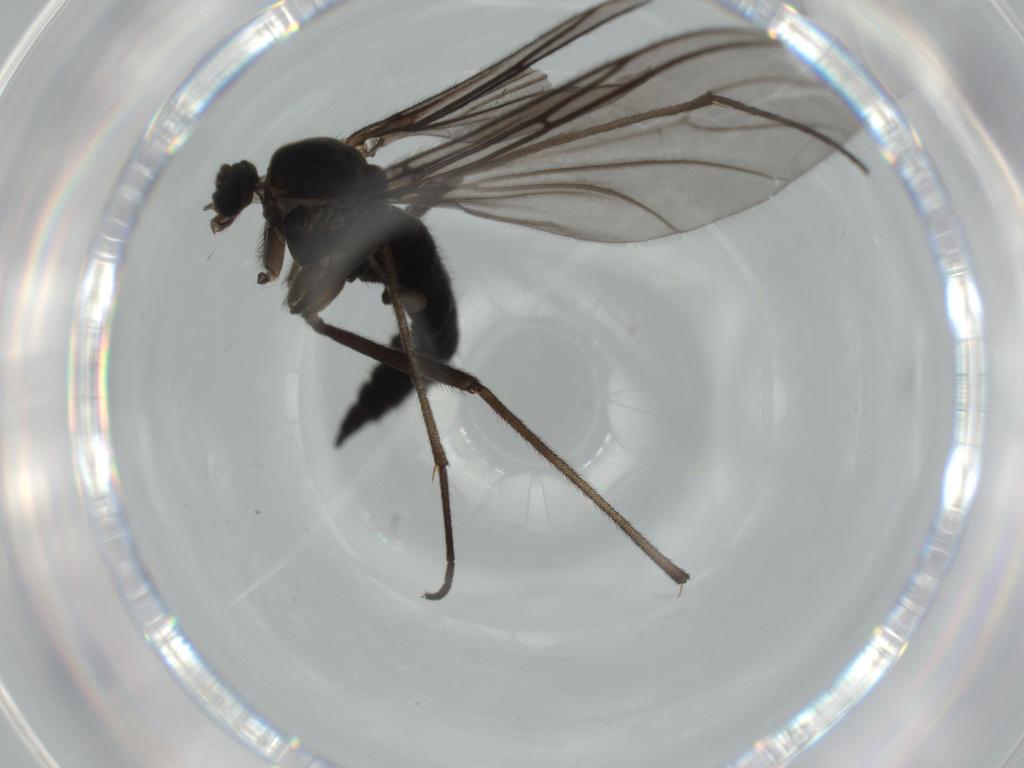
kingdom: Animalia
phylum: Arthropoda
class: Insecta
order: Diptera
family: Sciaridae
